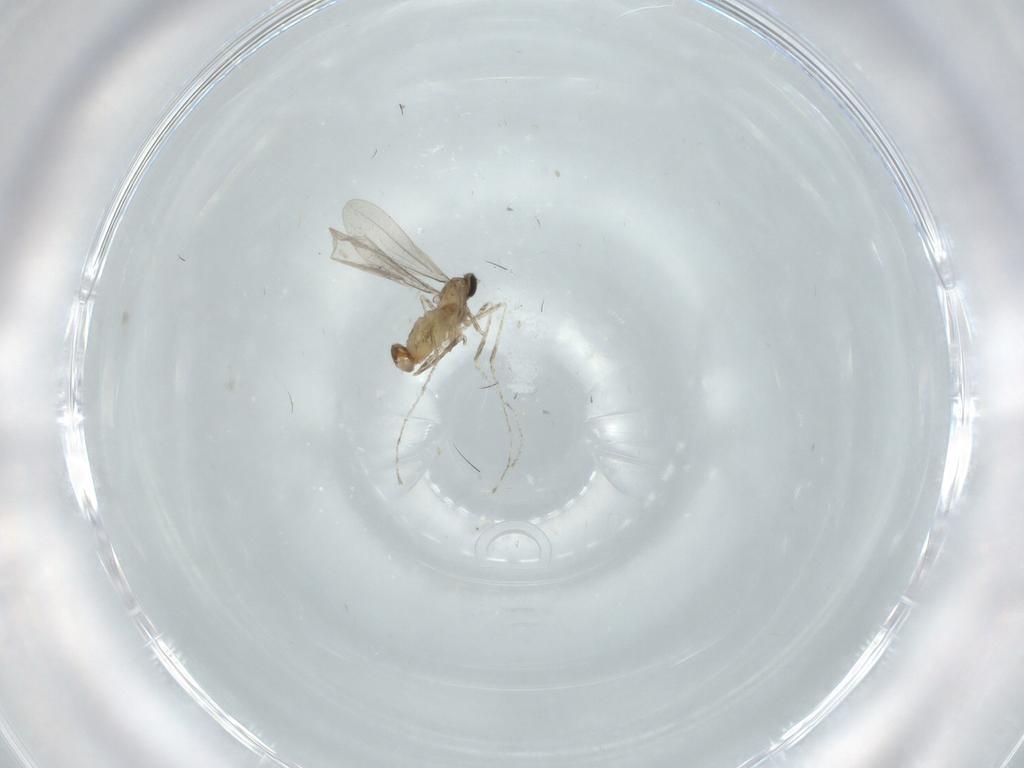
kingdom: Animalia
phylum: Arthropoda
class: Insecta
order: Diptera
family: Cecidomyiidae
